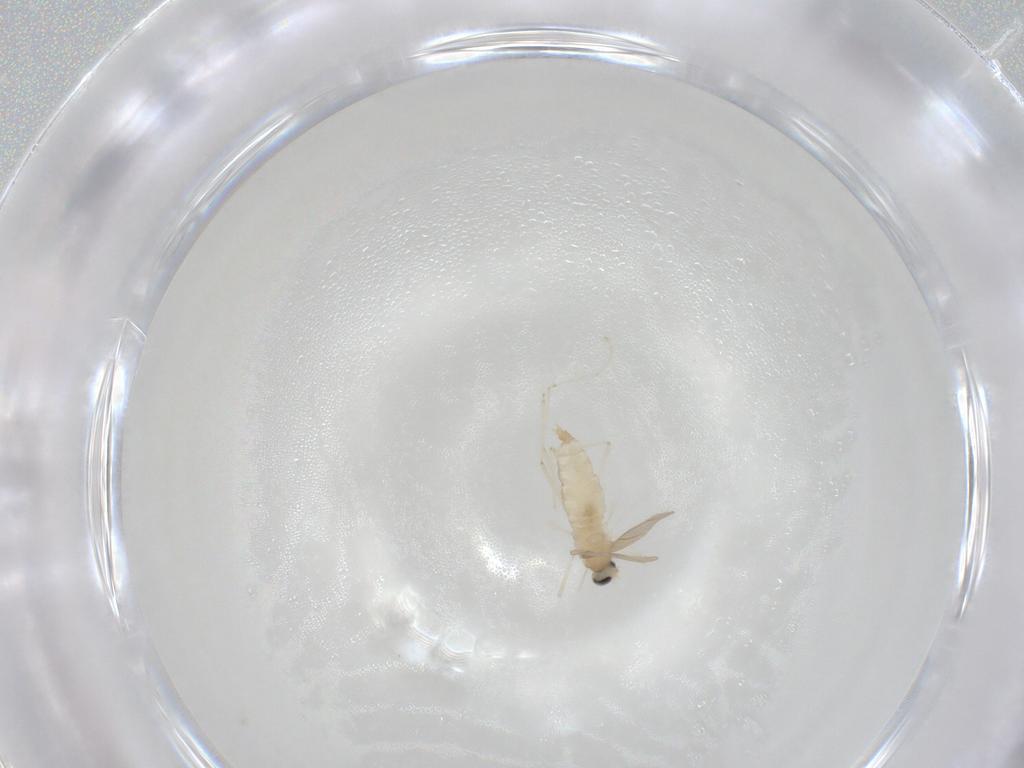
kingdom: Animalia
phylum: Arthropoda
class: Insecta
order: Diptera
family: Cecidomyiidae
